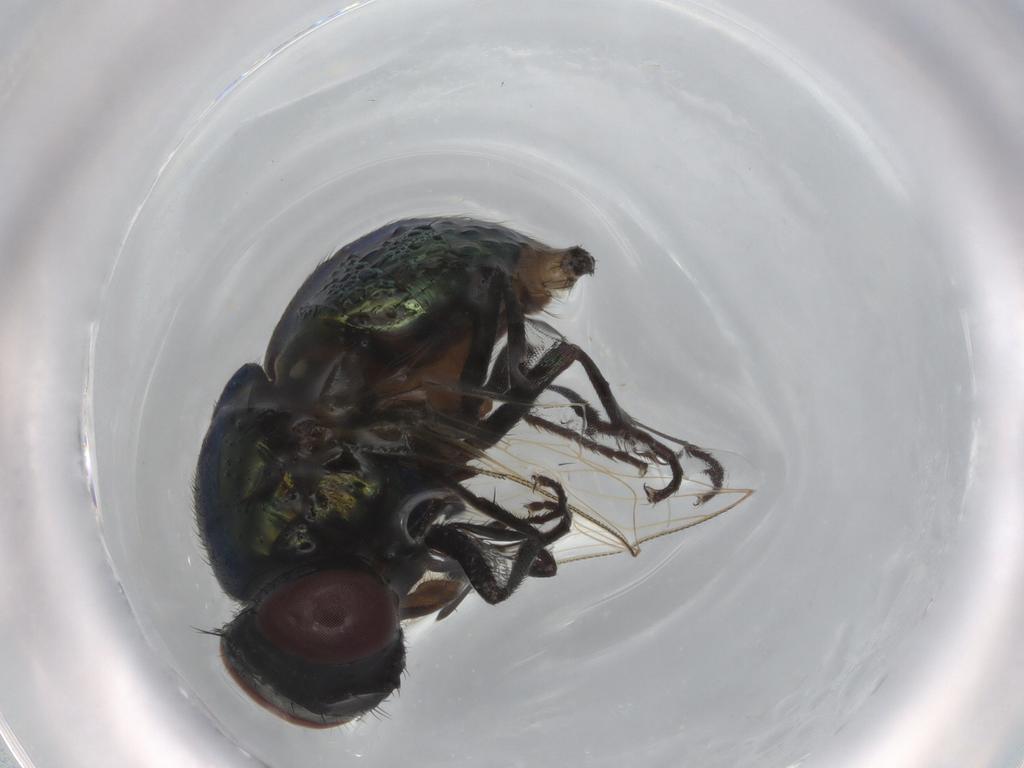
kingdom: Animalia
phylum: Arthropoda
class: Insecta
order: Diptera
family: Muscidae
